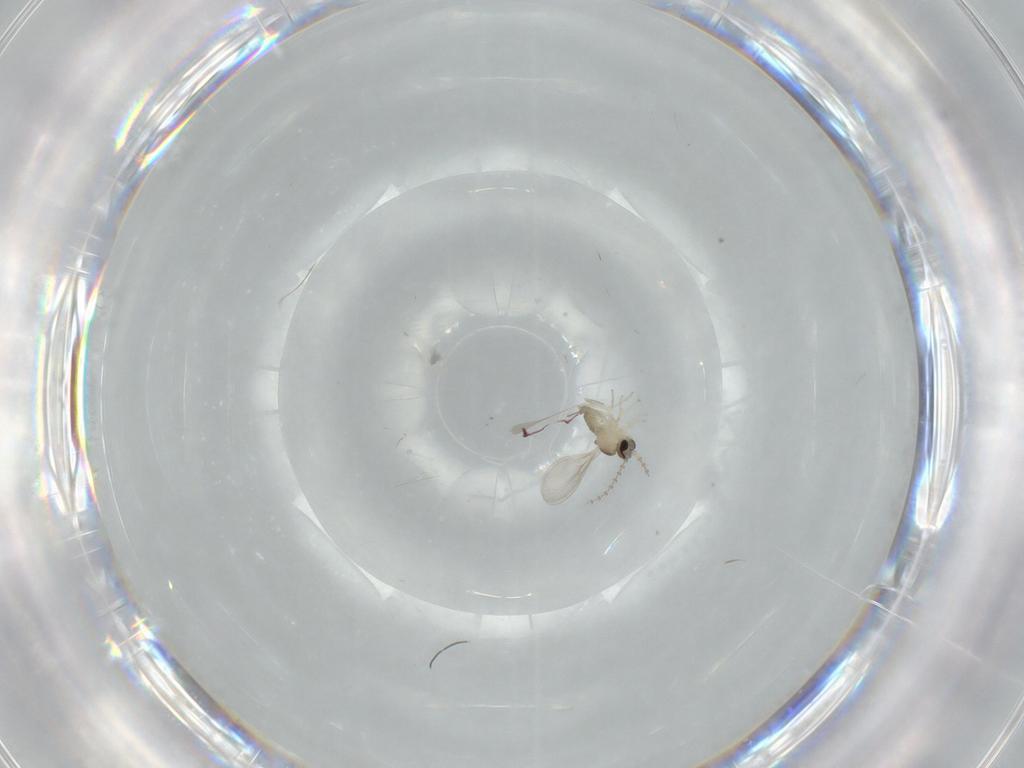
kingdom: Animalia
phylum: Arthropoda
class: Insecta
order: Diptera
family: Cecidomyiidae
